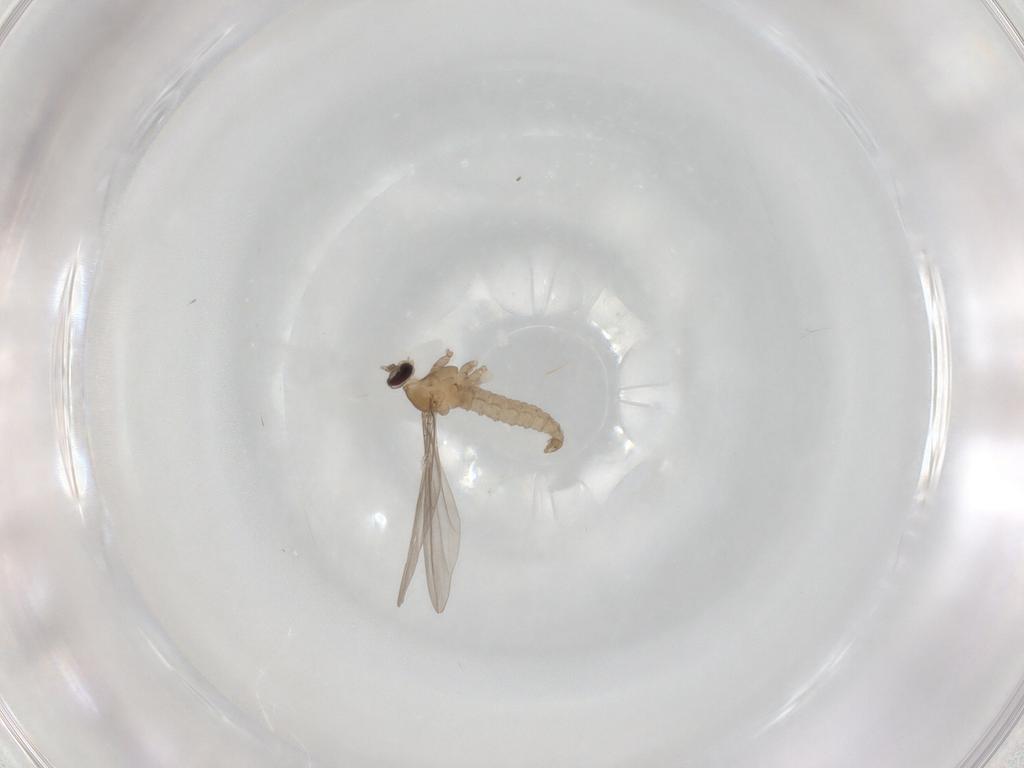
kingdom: Animalia
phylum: Arthropoda
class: Insecta
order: Diptera
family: Cecidomyiidae
